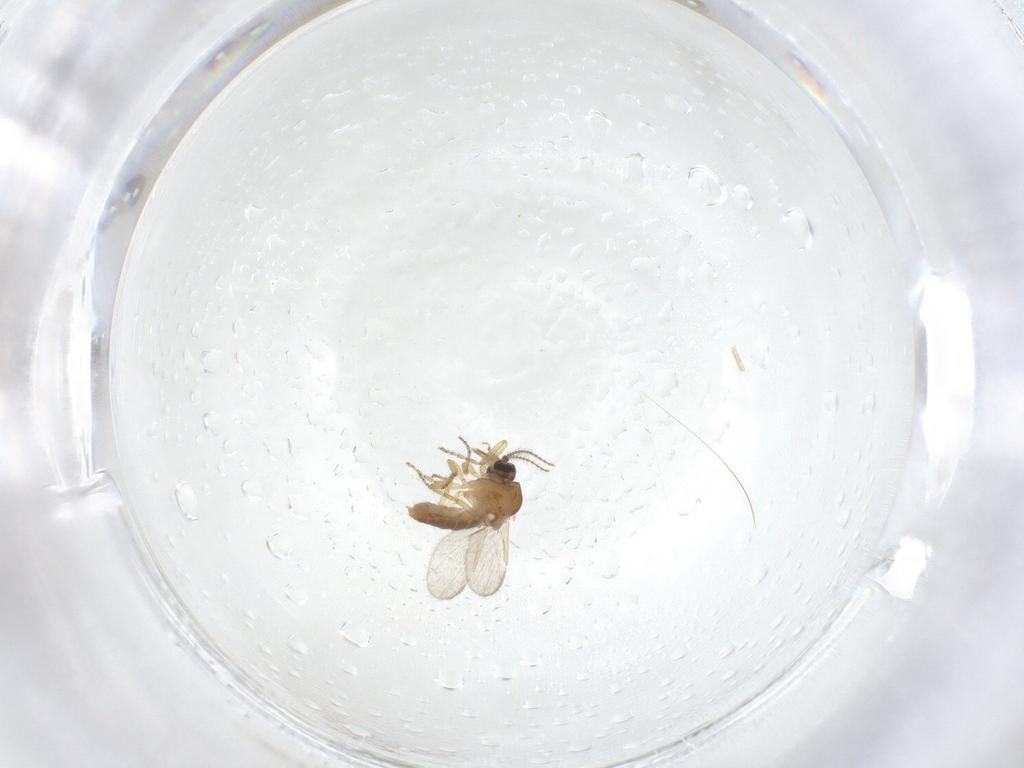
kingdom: Animalia
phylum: Arthropoda
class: Insecta
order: Diptera
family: Ceratopogonidae
